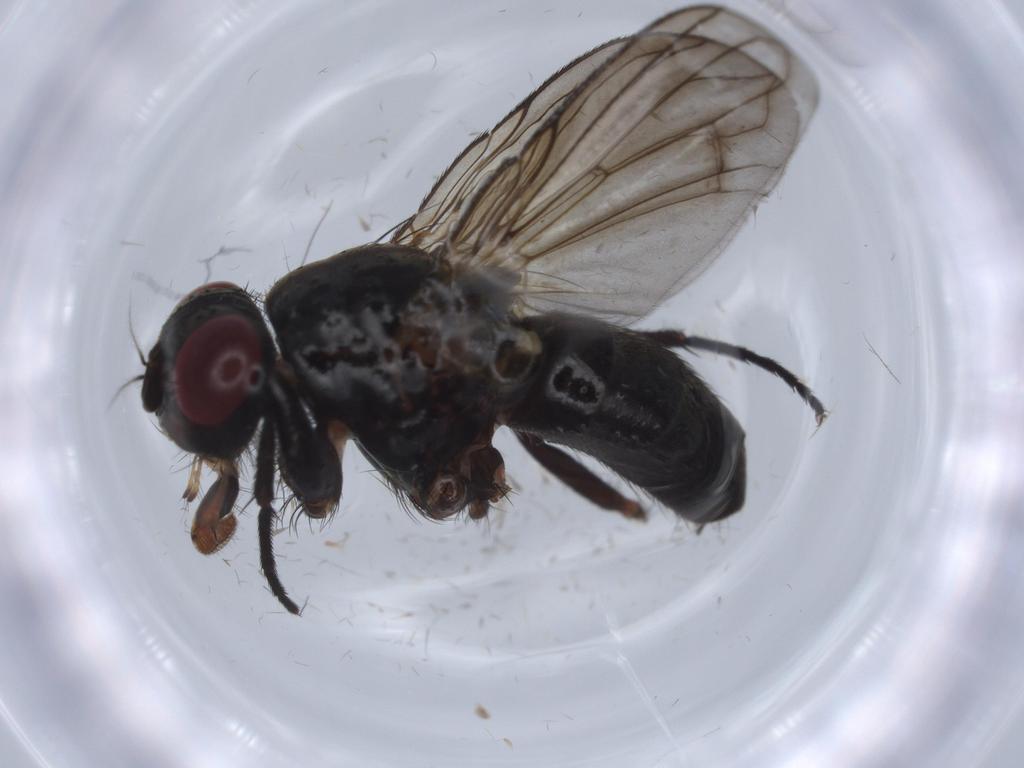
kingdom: Animalia
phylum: Arthropoda
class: Insecta
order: Diptera
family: Calliphoridae
